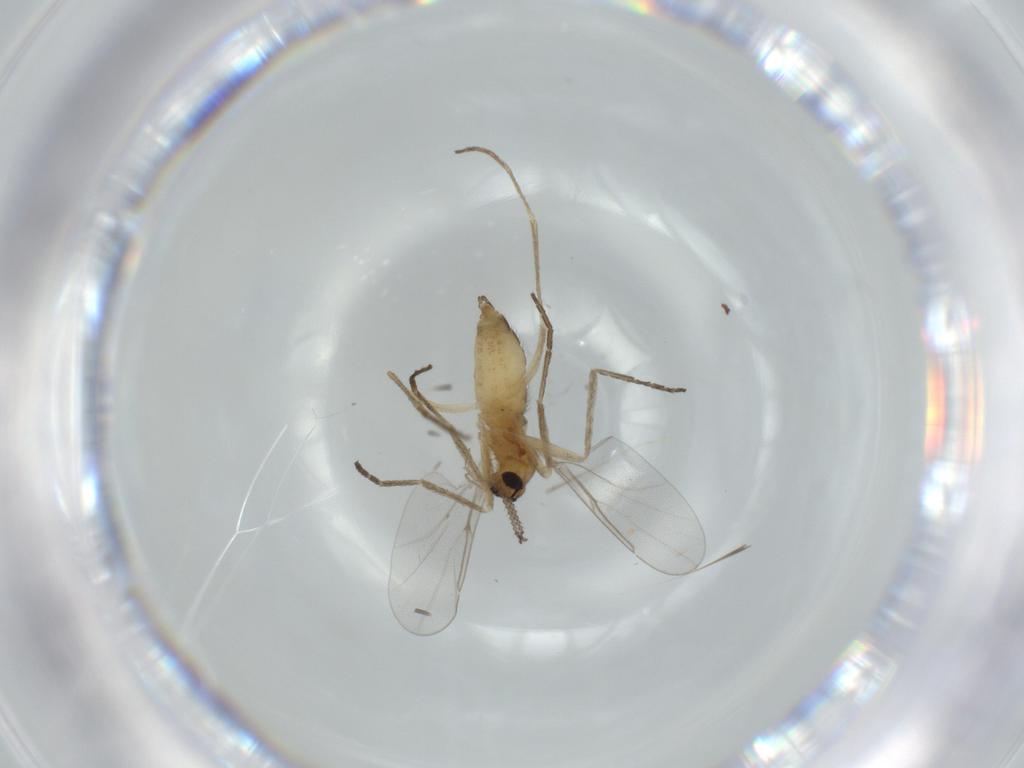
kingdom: Animalia
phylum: Arthropoda
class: Insecta
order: Diptera
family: Cecidomyiidae
